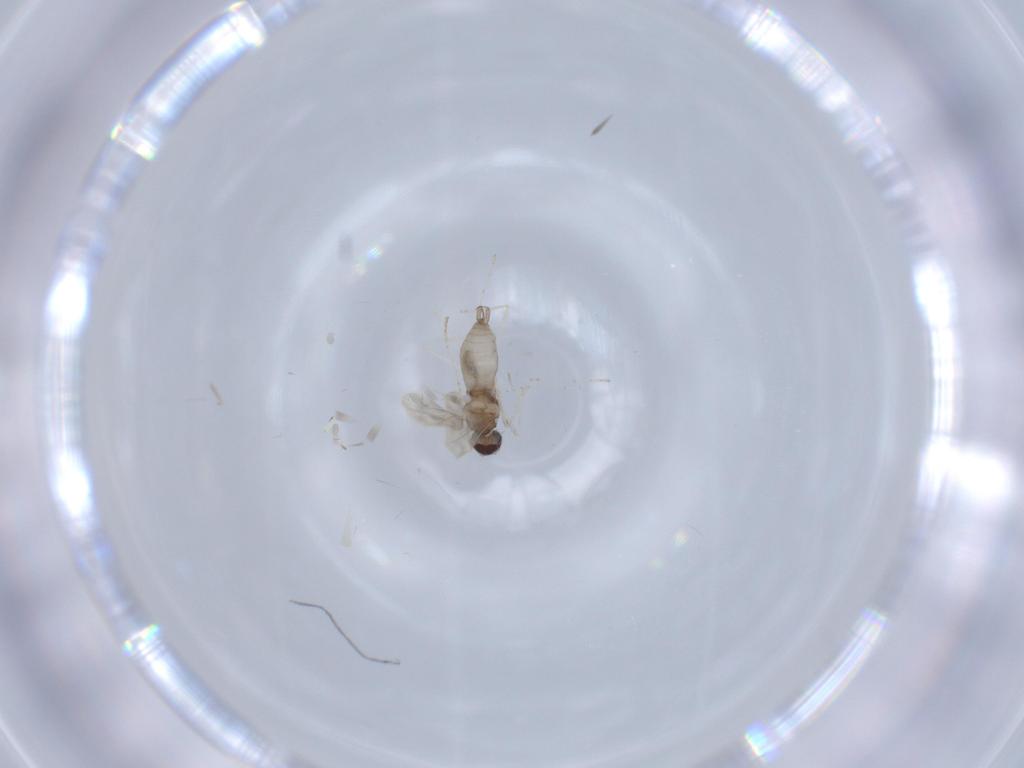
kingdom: Animalia
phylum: Arthropoda
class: Insecta
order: Diptera
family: Cecidomyiidae
